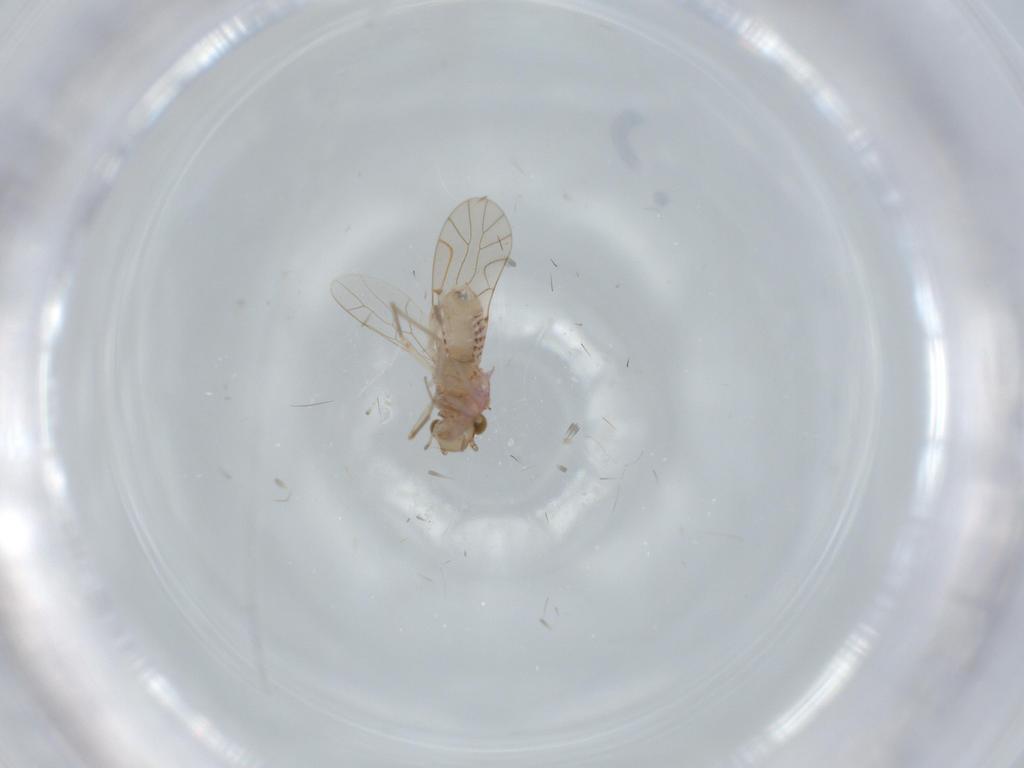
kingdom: Animalia
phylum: Arthropoda
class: Insecta
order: Psocodea
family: Lachesillidae
